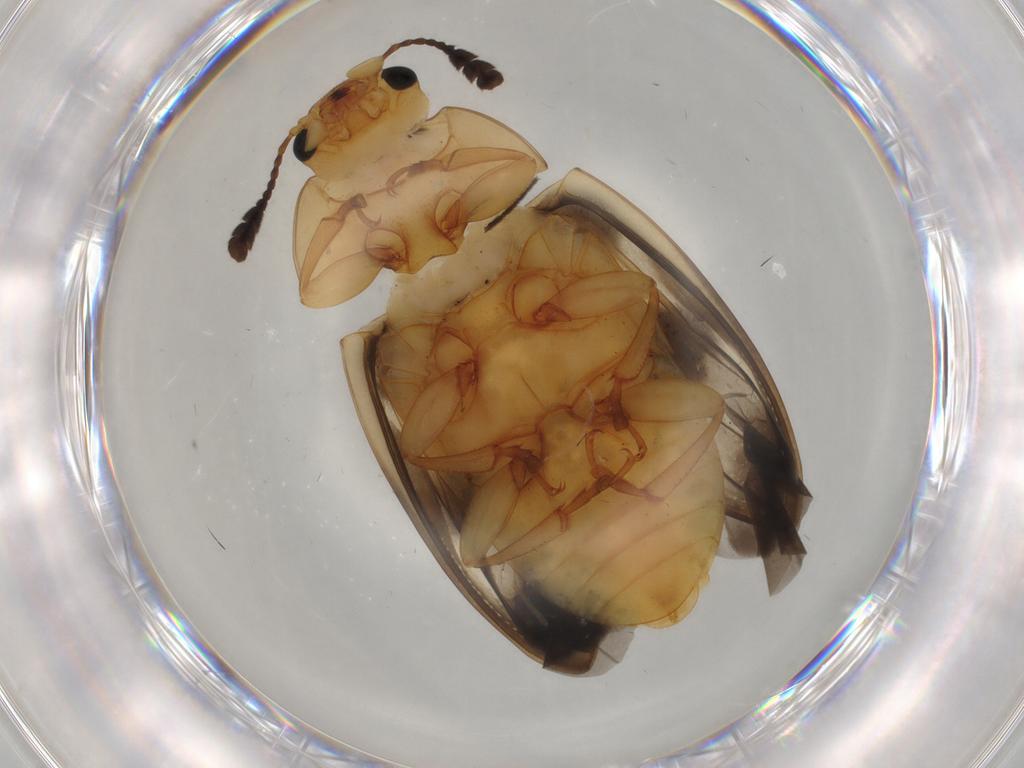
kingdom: Animalia
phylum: Arthropoda
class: Insecta
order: Coleoptera
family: Erotylidae
